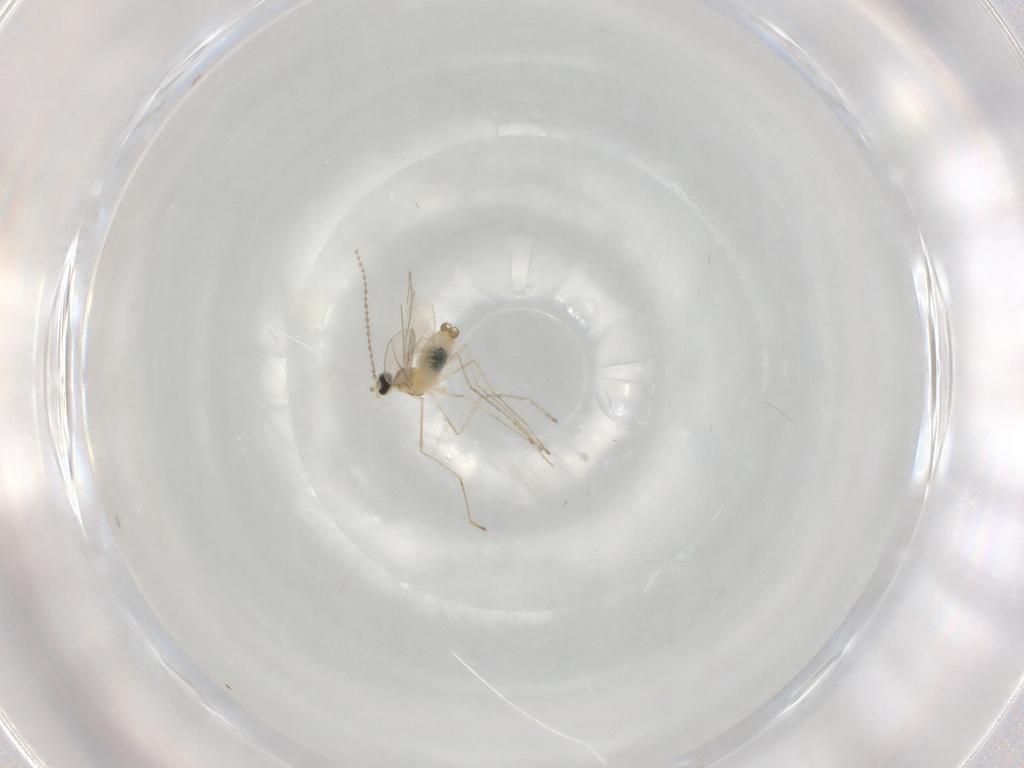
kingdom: Animalia
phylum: Arthropoda
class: Insecta
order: Diptera
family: Cecidomyiidae
